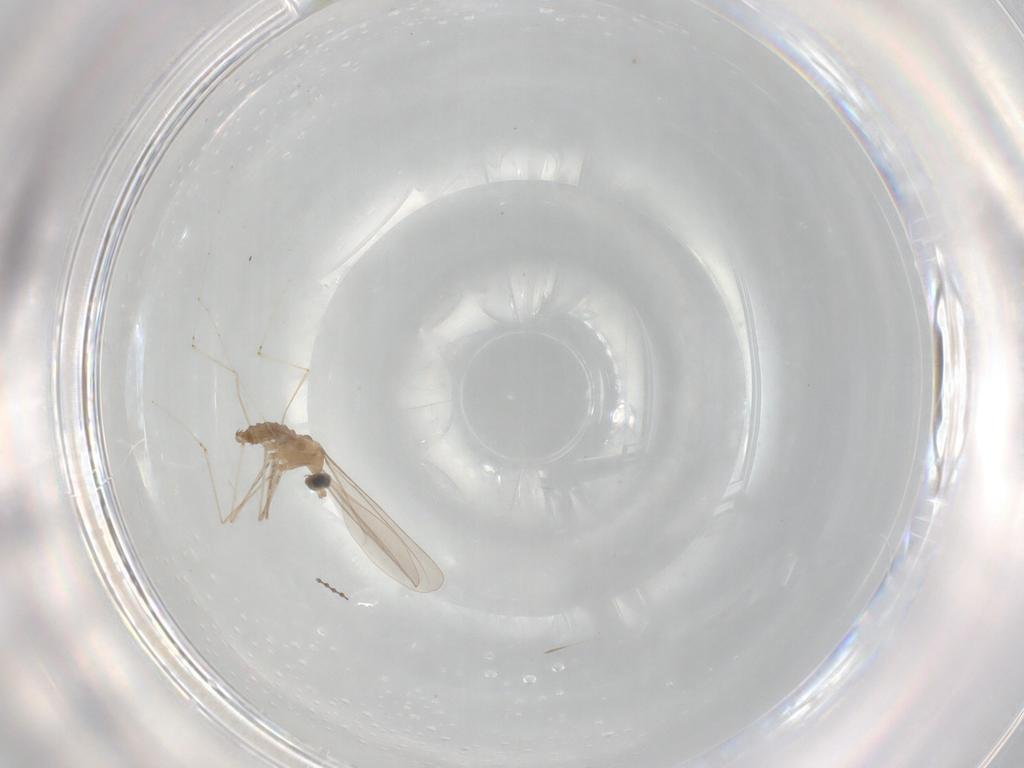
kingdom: Animalia
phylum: Arthropoda
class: Insecta
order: Diptera
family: Cecidomyiidae
